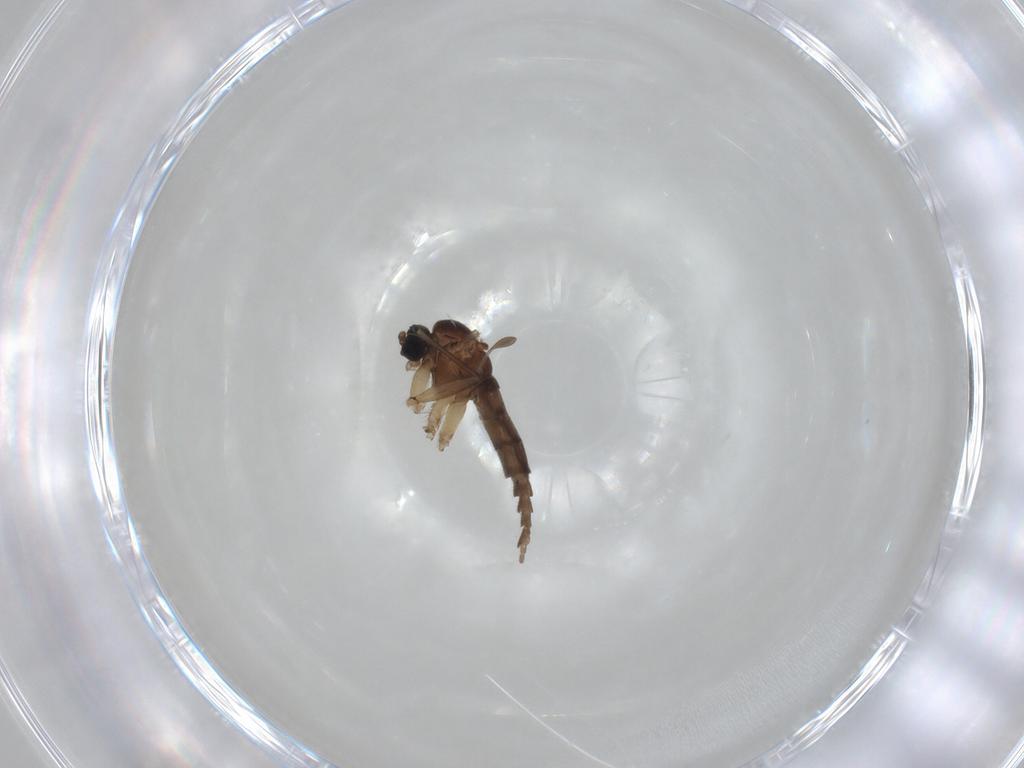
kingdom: Animalia
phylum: Arthropoda
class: Insecta
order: Diptera
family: Sciaridae
